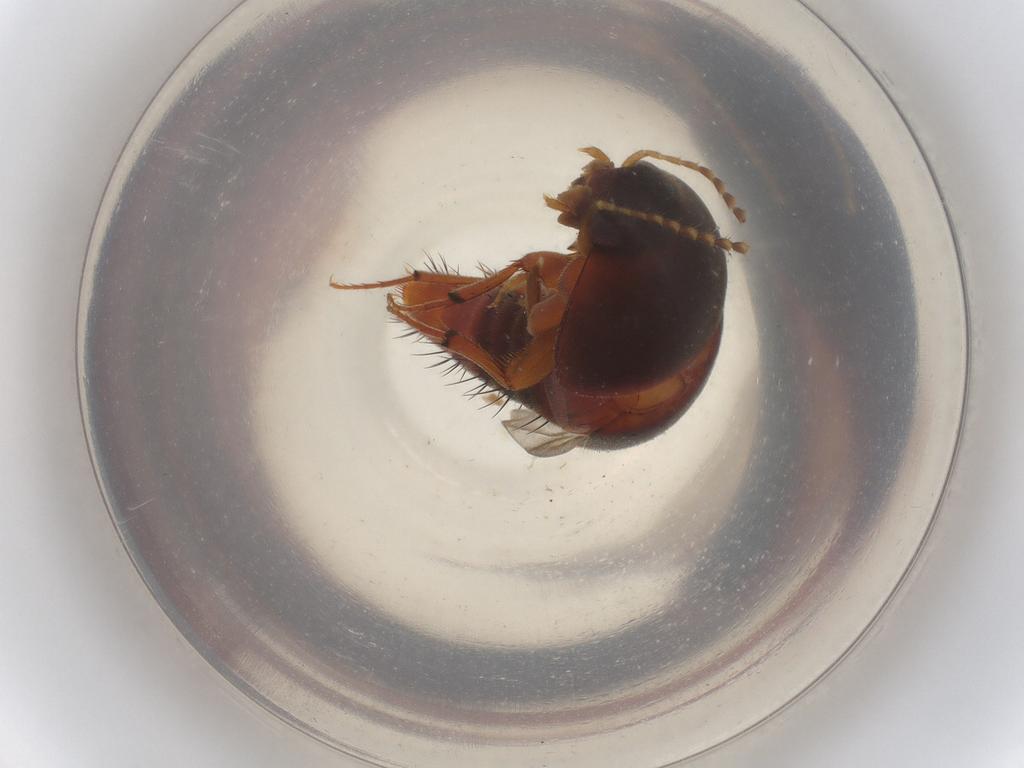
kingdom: Animalia
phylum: Arthropoda
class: Insecta
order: Coleoptera
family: Staphylinidae
